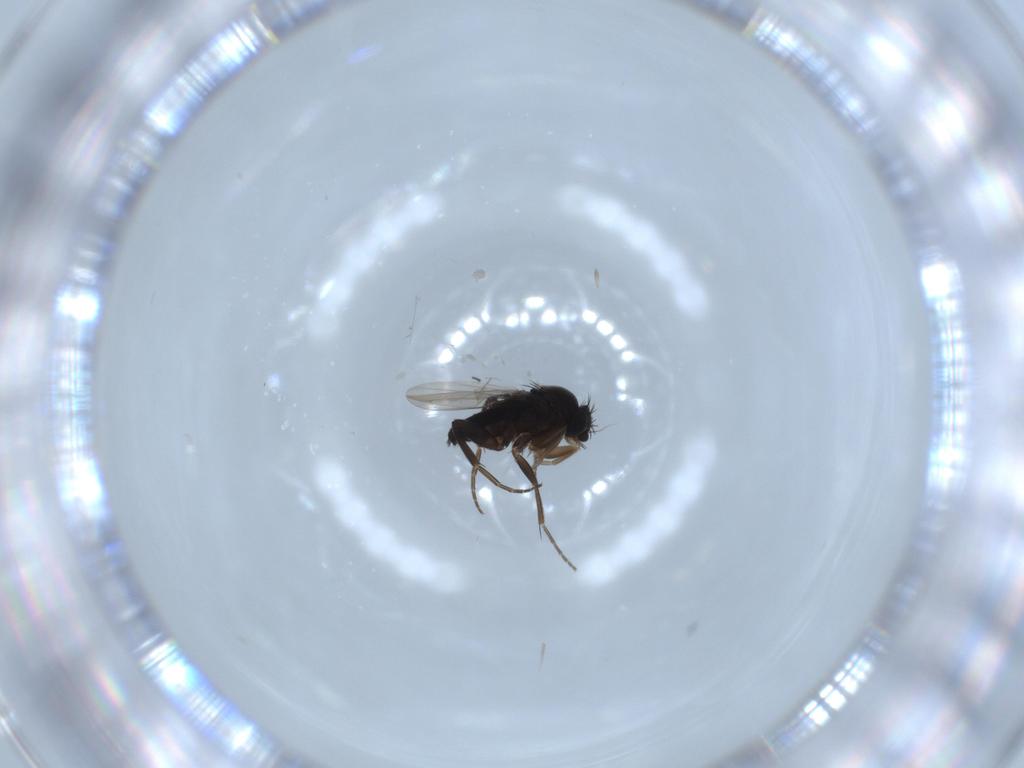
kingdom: Animalia
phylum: Arthropoda
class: Insecta
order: Diptera
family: Phoridae
